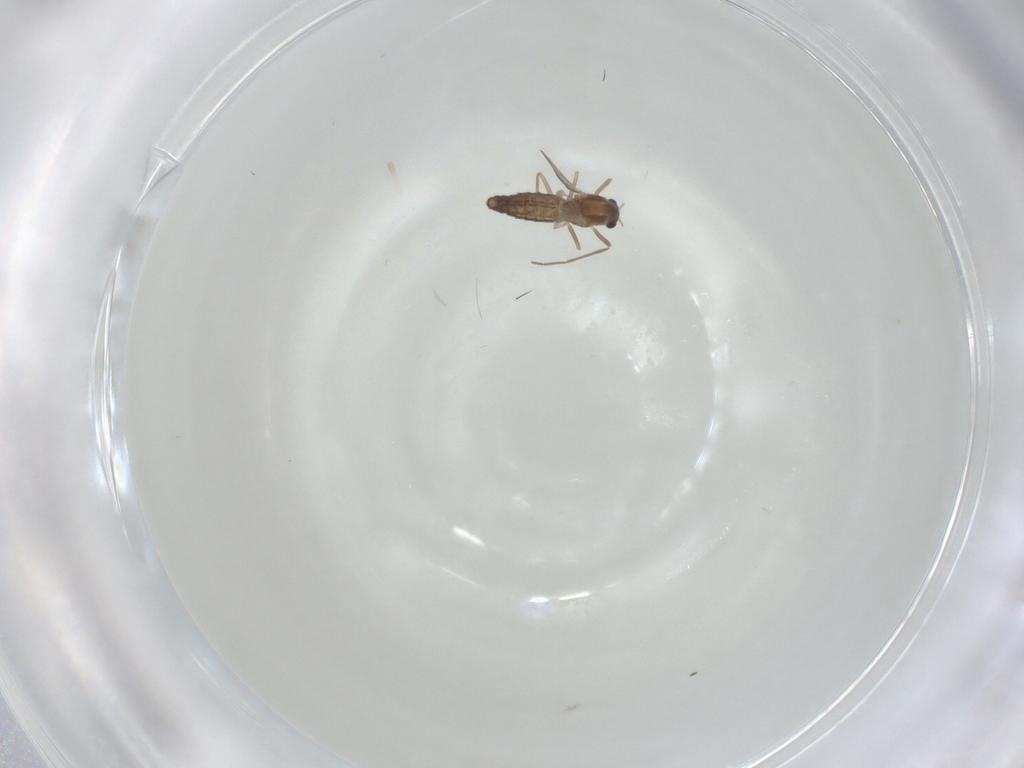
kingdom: Animalia
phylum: Arthropoda
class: Insecta
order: Diptera
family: Chironomidae
